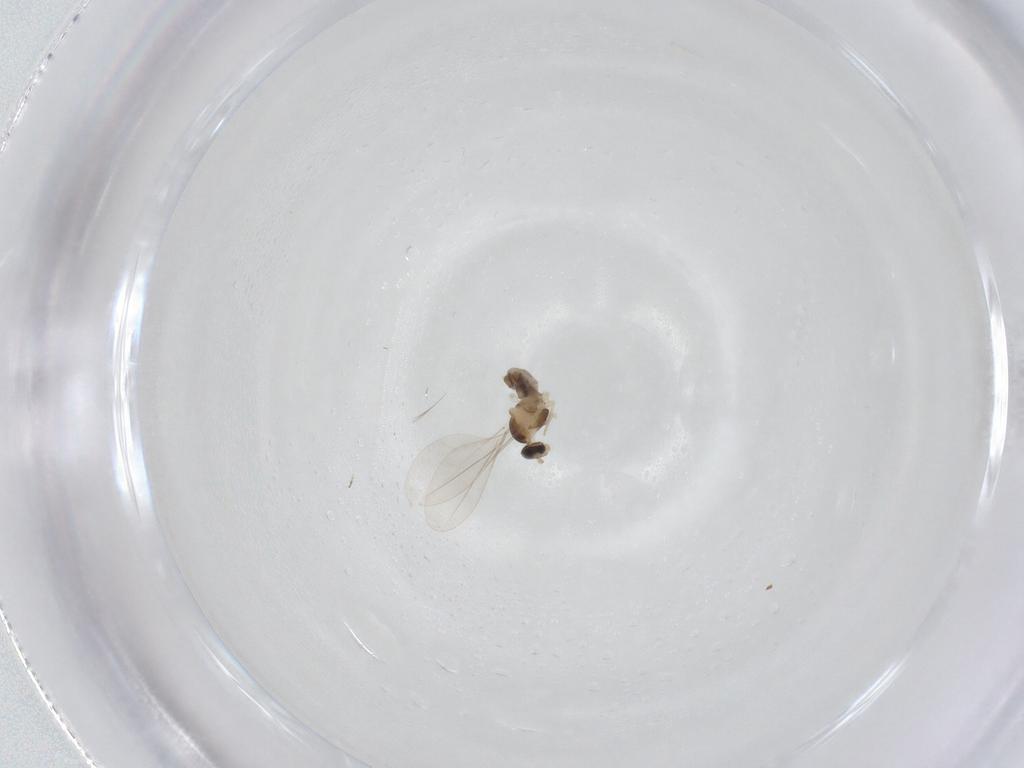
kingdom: Animalia
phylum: Arthropoda
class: Insecta
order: Diptera
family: Ceratopogonidae
